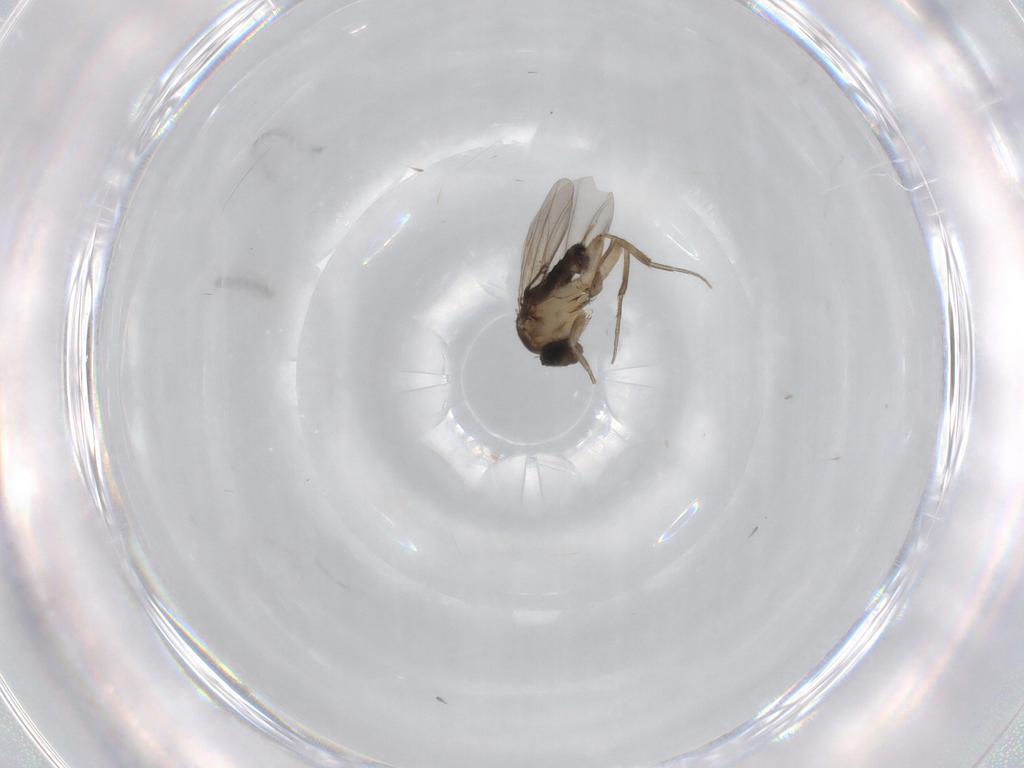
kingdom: Animalia
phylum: Arthropoda
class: Insecta
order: Diptera
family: Phoridae
